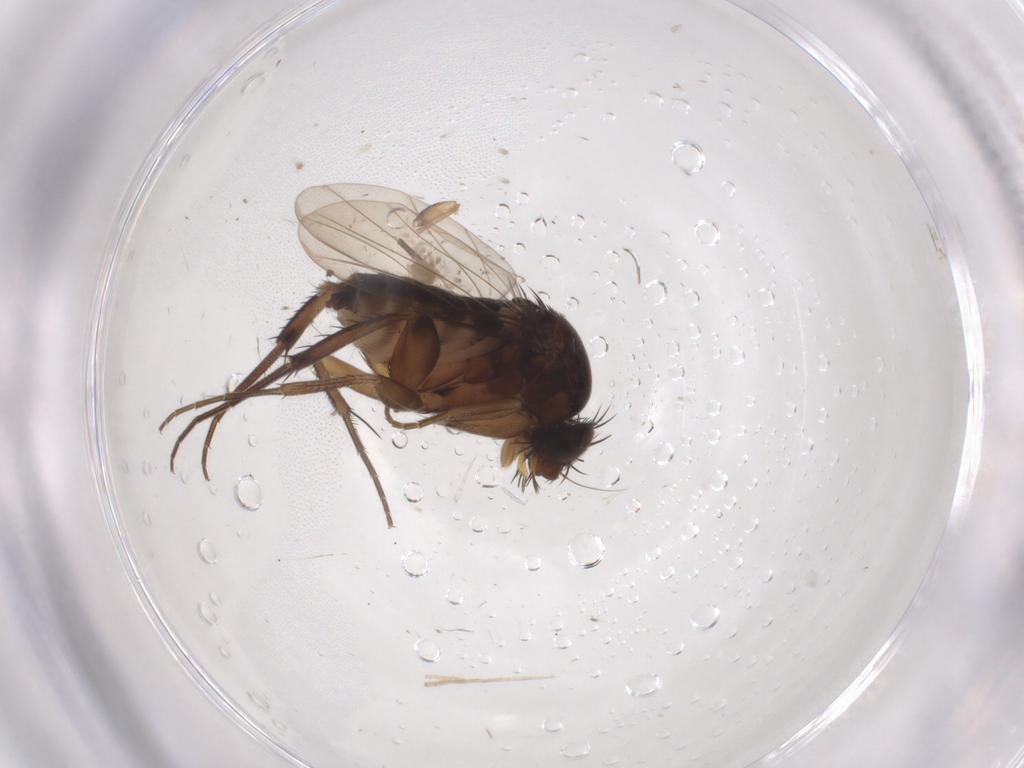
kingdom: Animalia
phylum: Arthropoda
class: Insecta
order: Diptera
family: Phoridae
